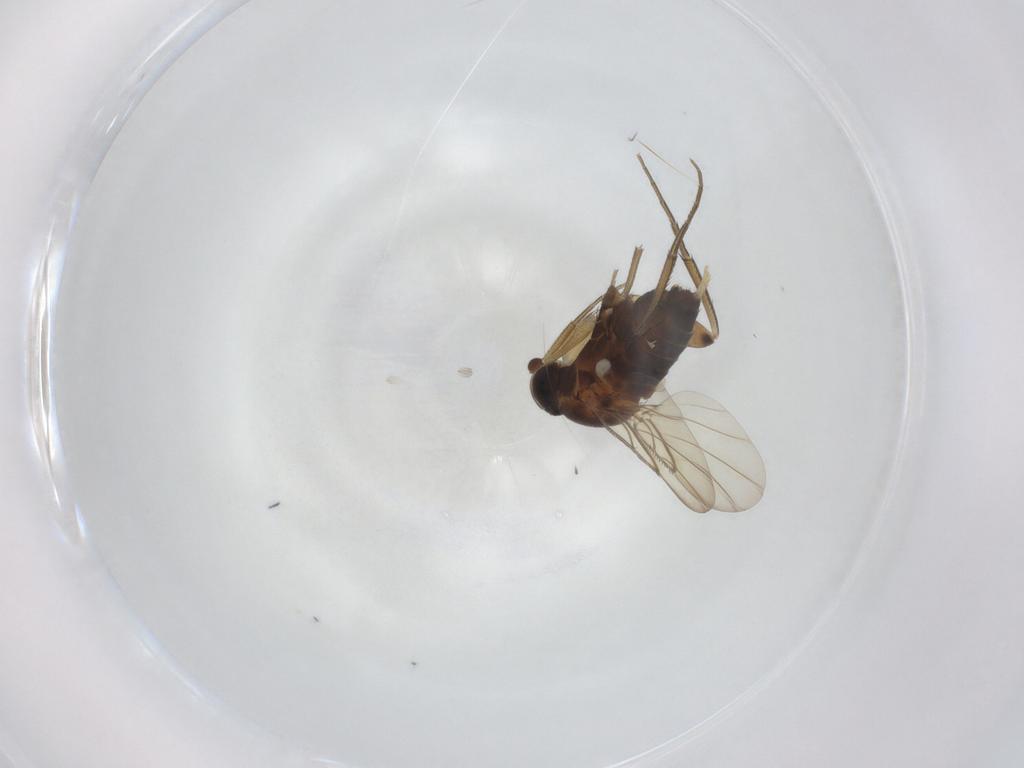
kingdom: Animalia
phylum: Arthropoda
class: Insecta
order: Diptera
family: Phoridae
